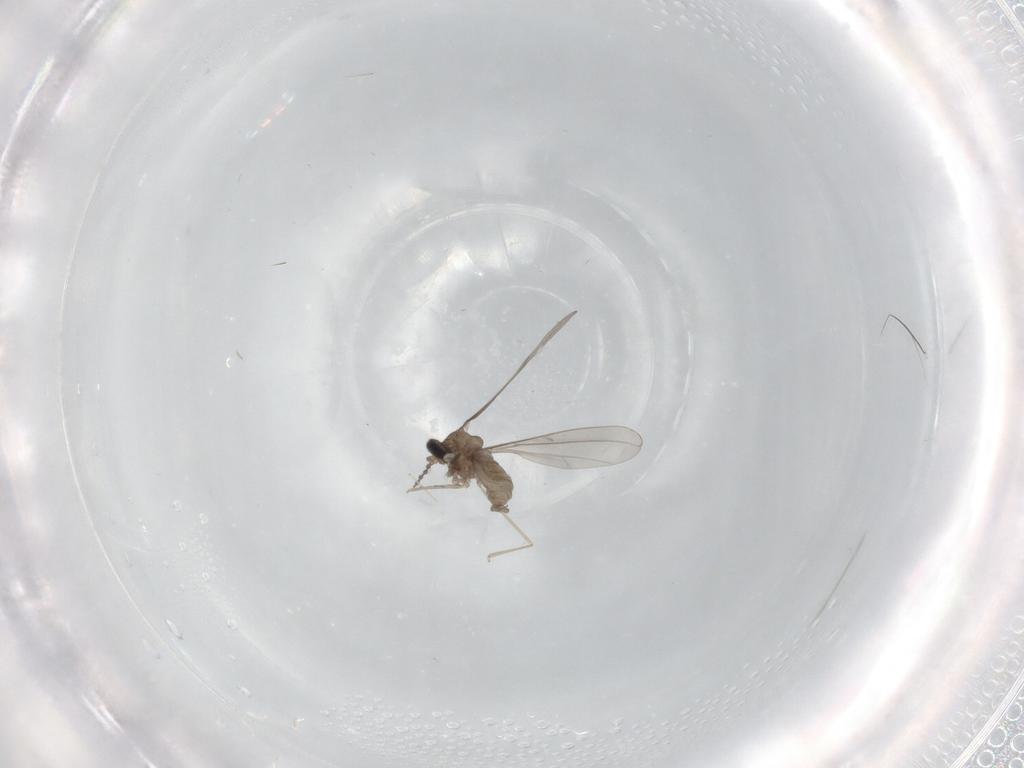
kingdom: Animalia
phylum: Arthropoda
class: Insecta
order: Diptera
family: Cecidomyiidae
